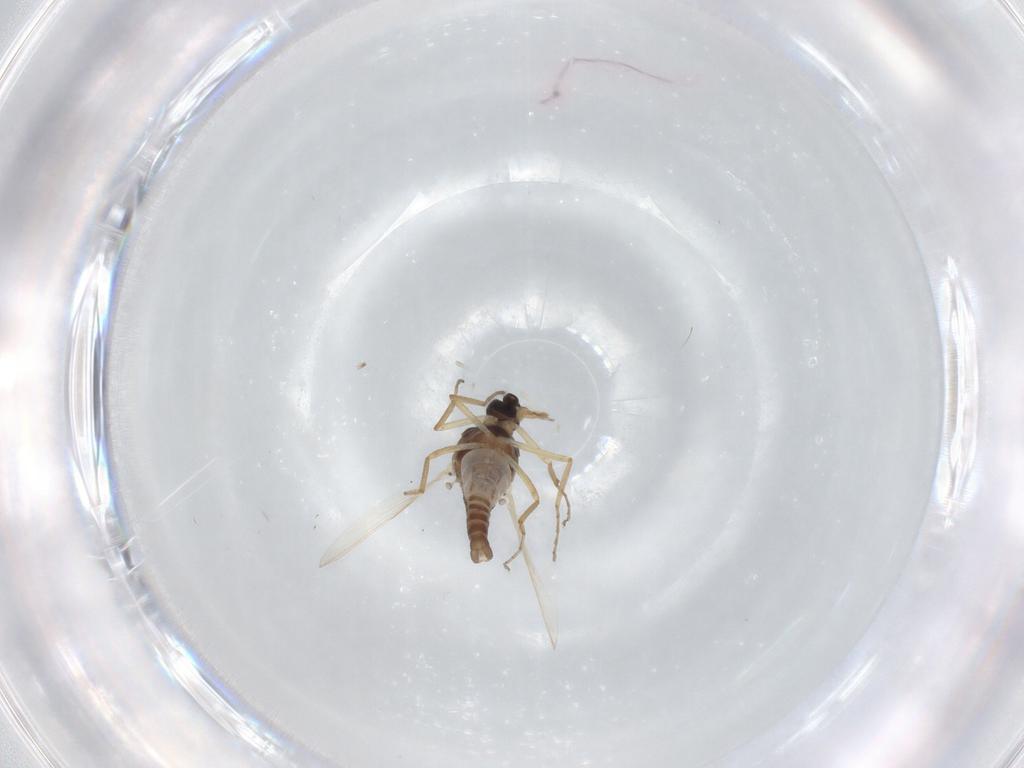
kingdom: Animalia
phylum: Arthropoda
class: Insecta
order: Diptera
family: Ceratopogonidae
